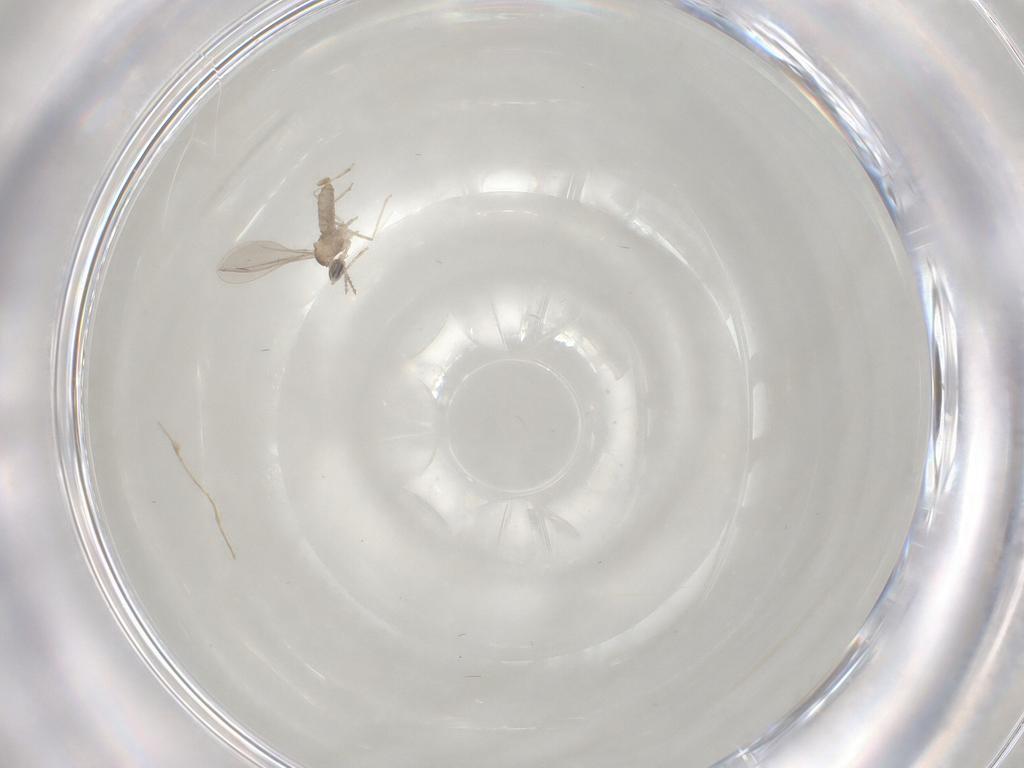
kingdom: Animalia
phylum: Arthropoda
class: Insecta
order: Diptera
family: Cecidomyiidae
